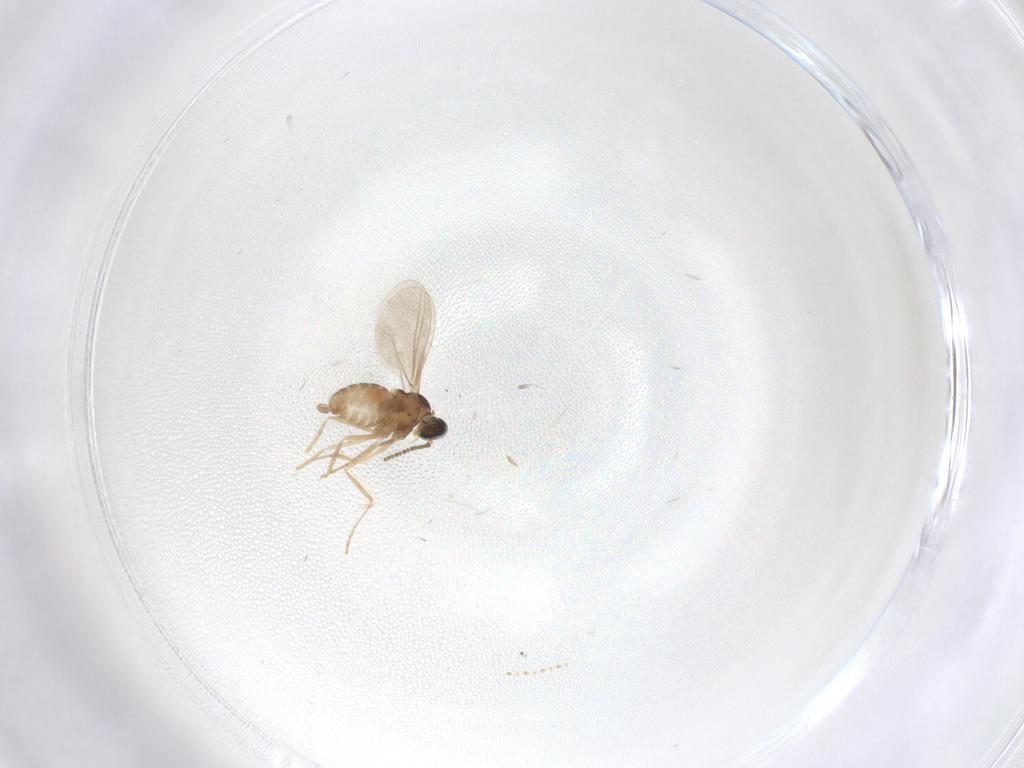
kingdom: Animalia
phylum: Arthropoda
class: Insecta
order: Diptera
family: Cecidomyiidae
